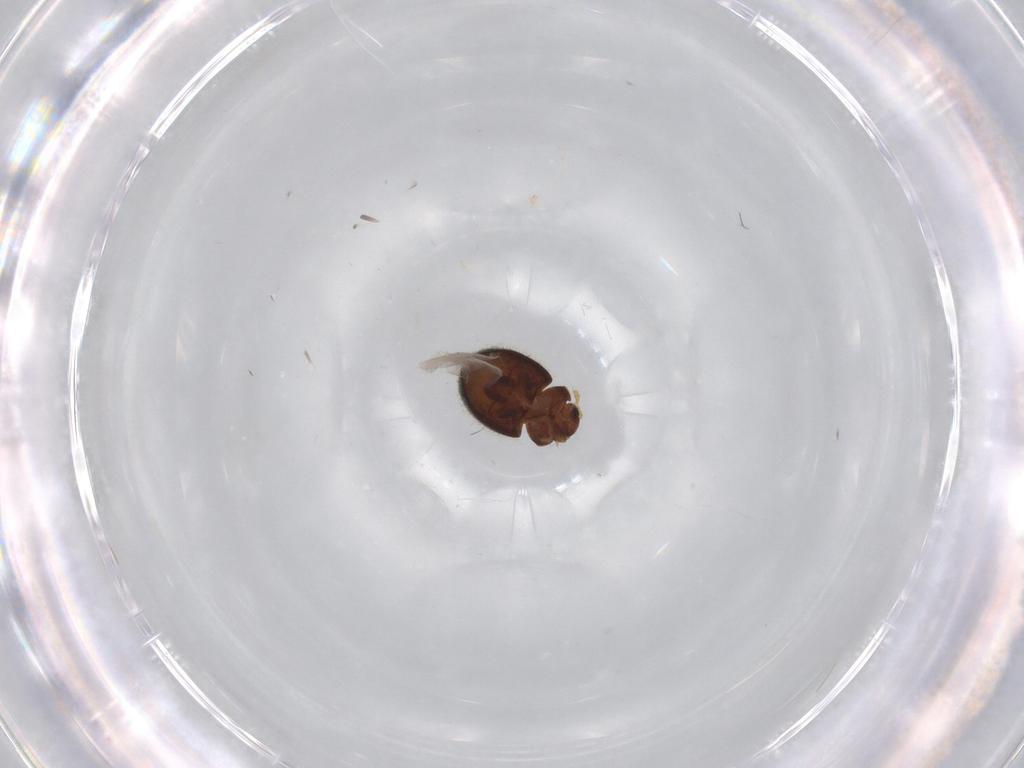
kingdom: Animalia
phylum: Arthropoda
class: Insecta
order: Coleoptera
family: Coccinellidae
